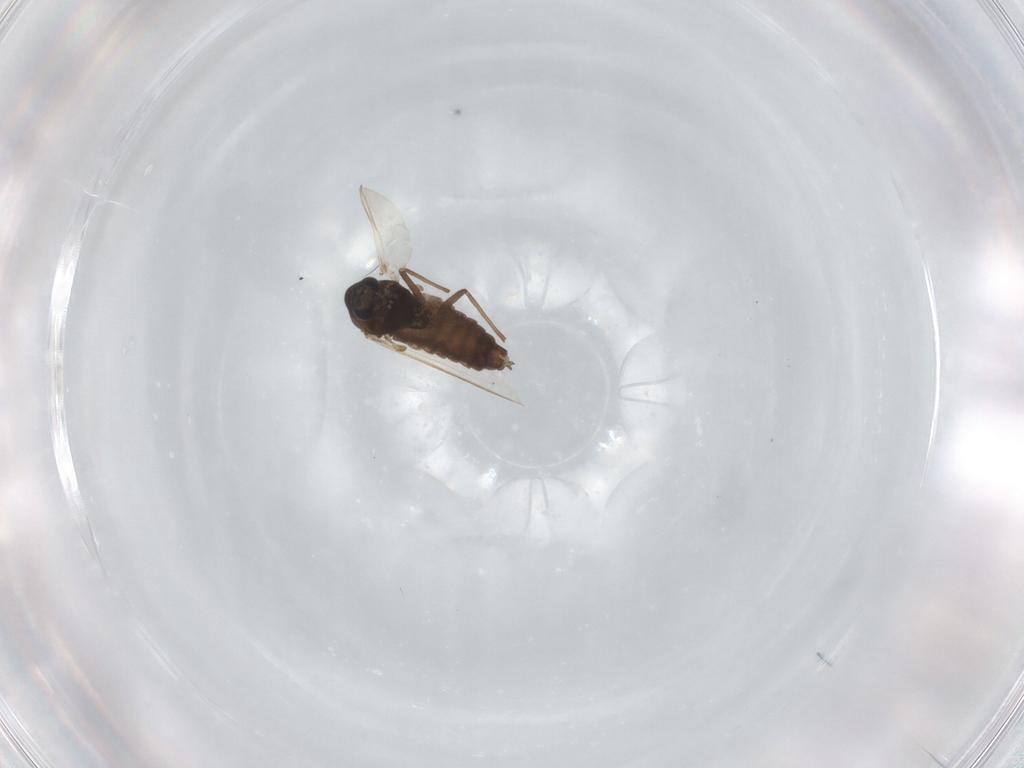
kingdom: Animalia
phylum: Arthropoda
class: Insecta
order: Diptera
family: Chironomidae
